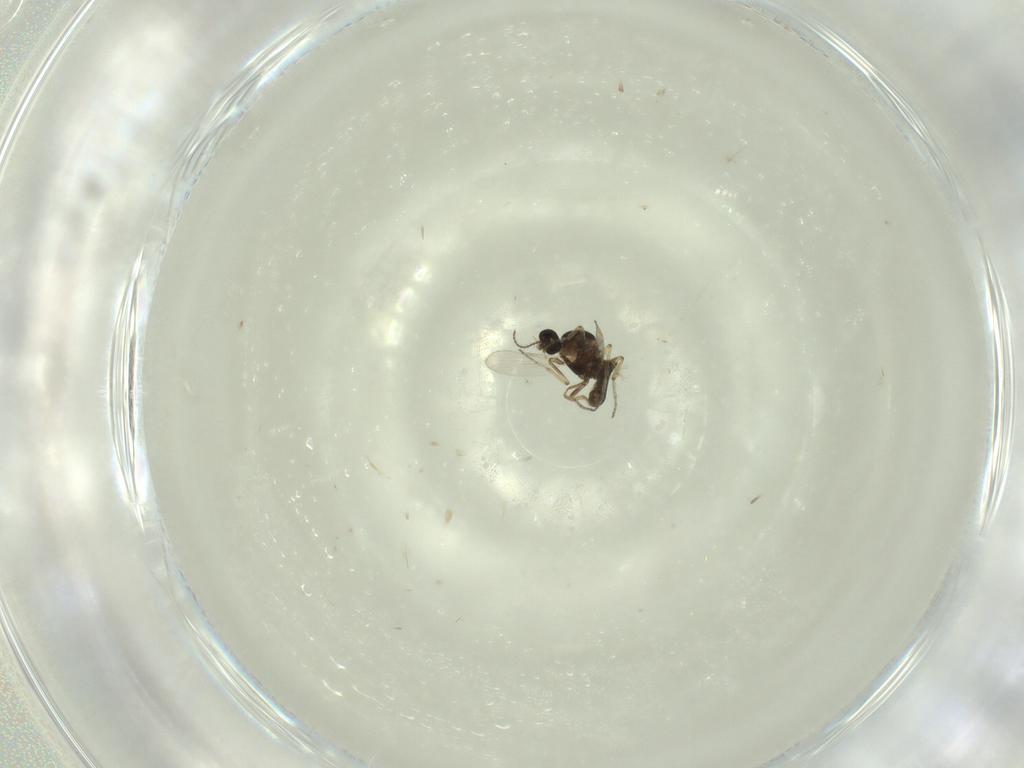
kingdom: Animalia
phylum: Arthropoda
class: Insecta
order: Diptera
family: Ceratopogonidae
